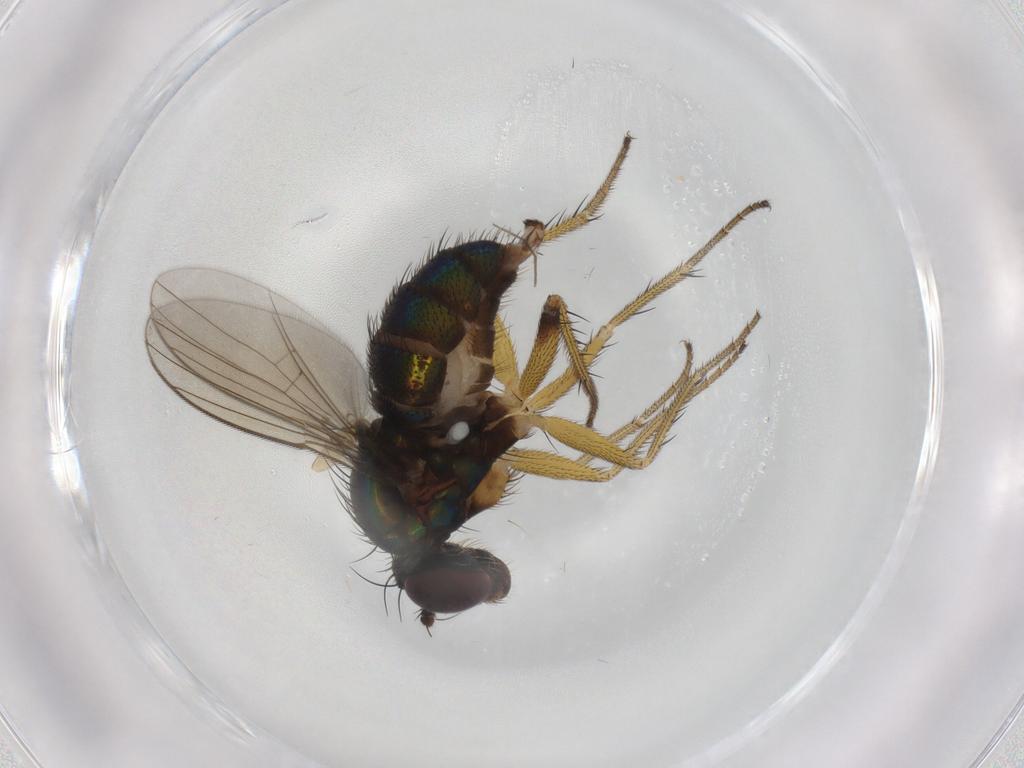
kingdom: Animalia
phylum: Arthropoda
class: Insecta
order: Diptera
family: Dolichopodidae
